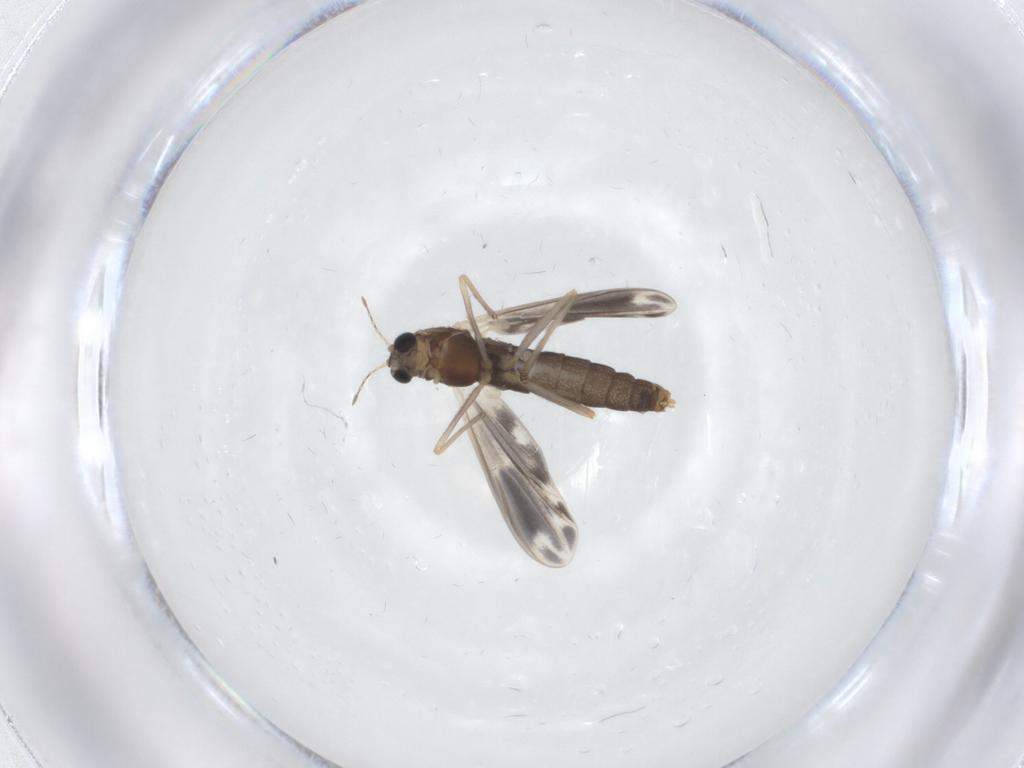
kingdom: Animalia
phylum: Arthropoda
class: Insecta
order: Diptera
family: Chironomidae
